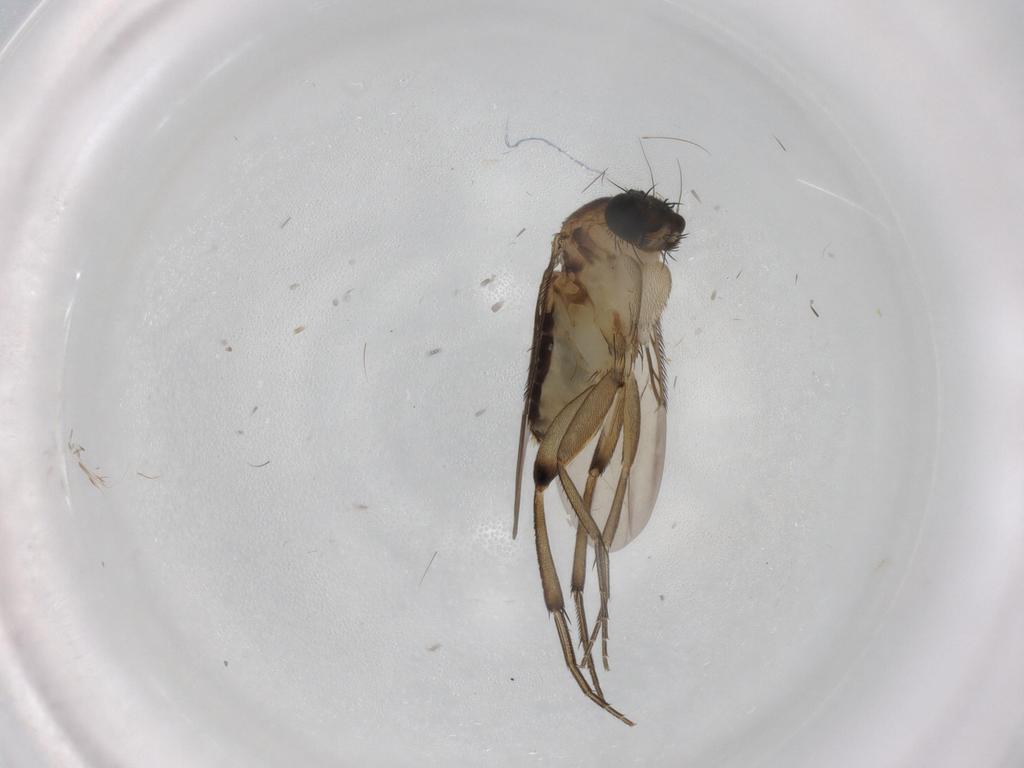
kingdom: Animalia
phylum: Arthropoda
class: Insecta
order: Diptera
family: Phoridae
